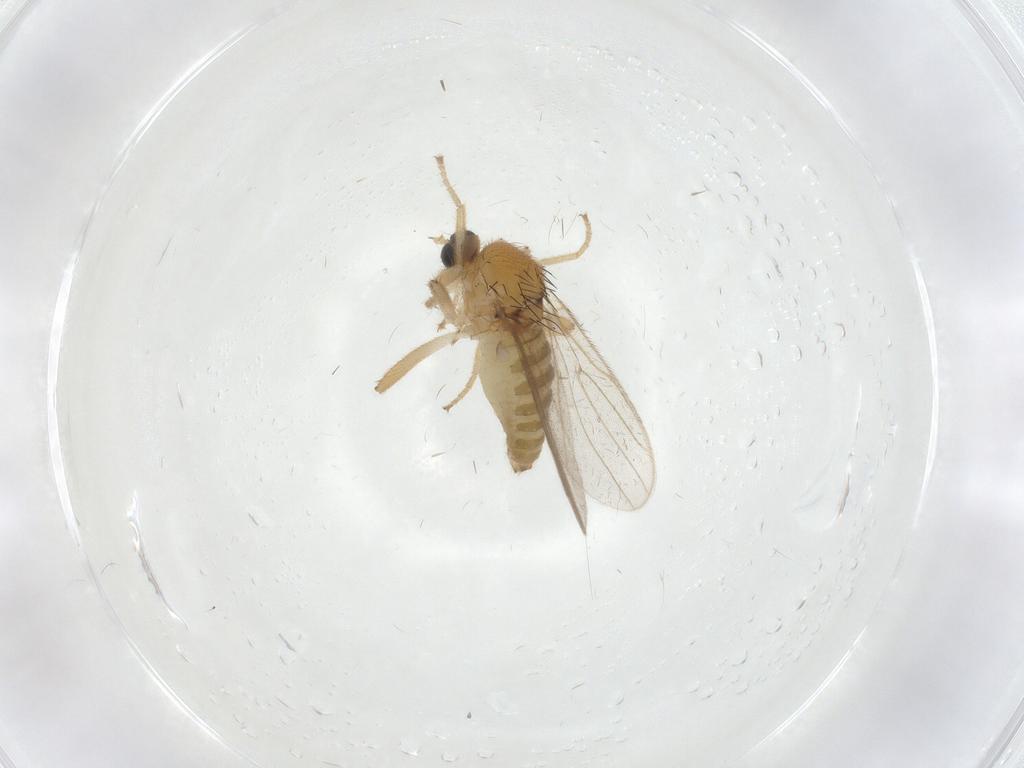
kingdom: Animalia
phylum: Arthropoda
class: Insecta
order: Diptera
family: Hybotidae
